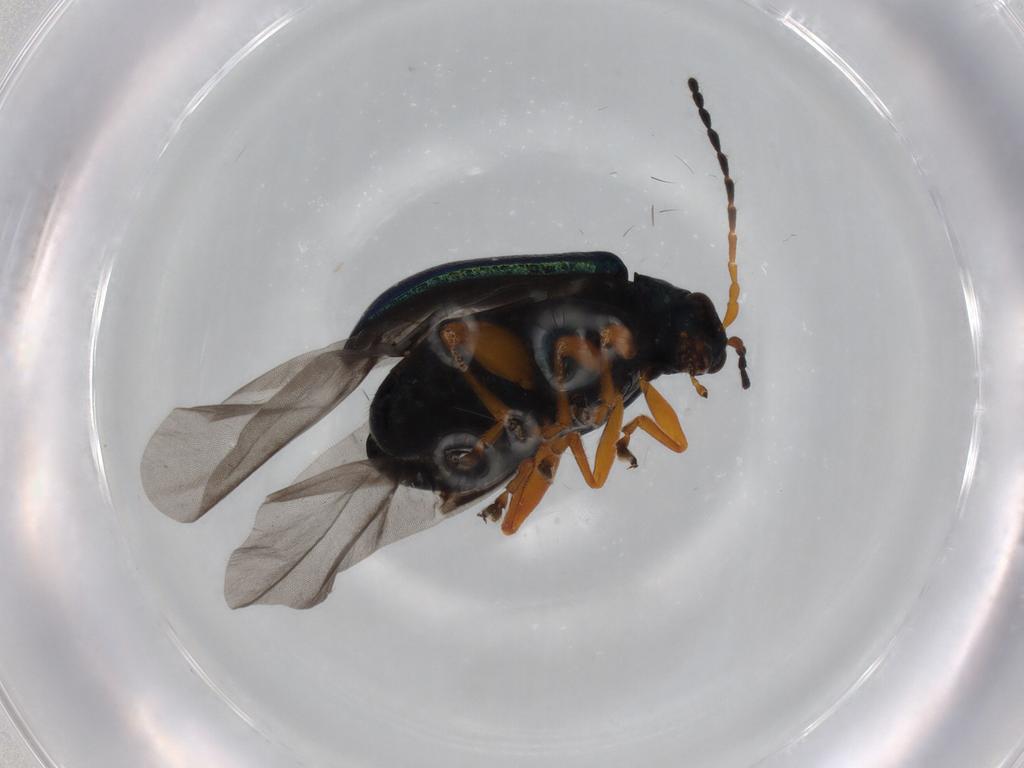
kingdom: Animalia
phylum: Arthropoda
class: Insecta
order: Coleoptera
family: Chrysomelidae
